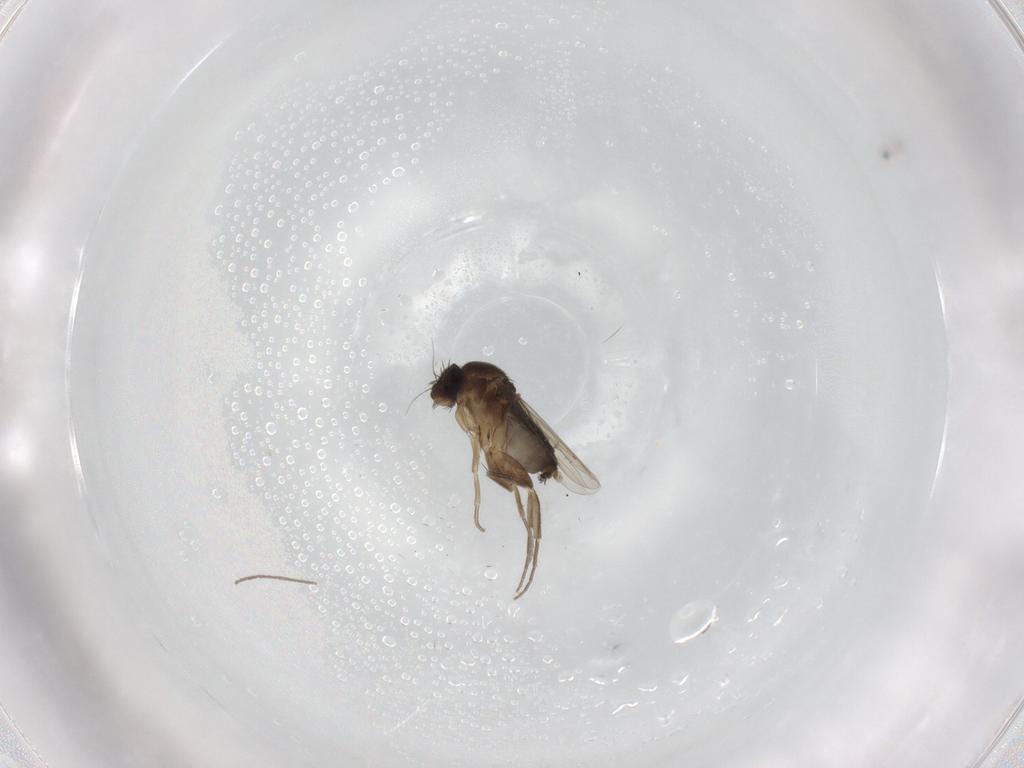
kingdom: Animalia
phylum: Arthropoda
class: Insecta
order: Diptera
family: Phoridae
